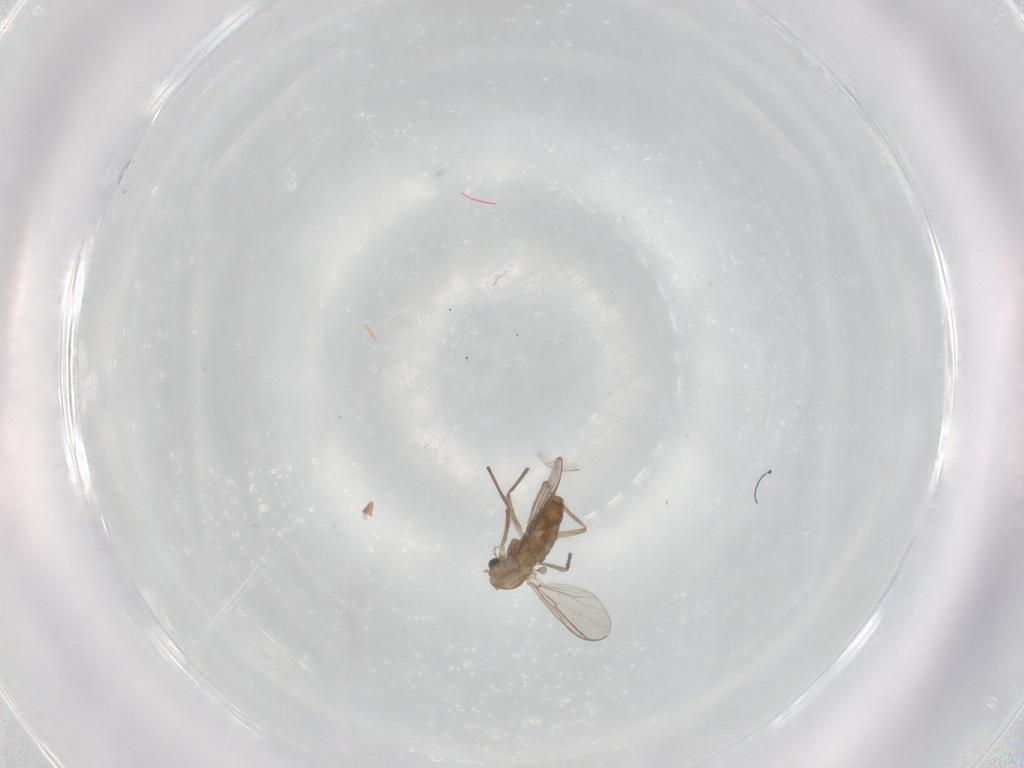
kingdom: Animalia
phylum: Arthropoda
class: Insecta
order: Diptera
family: Chironomidae
